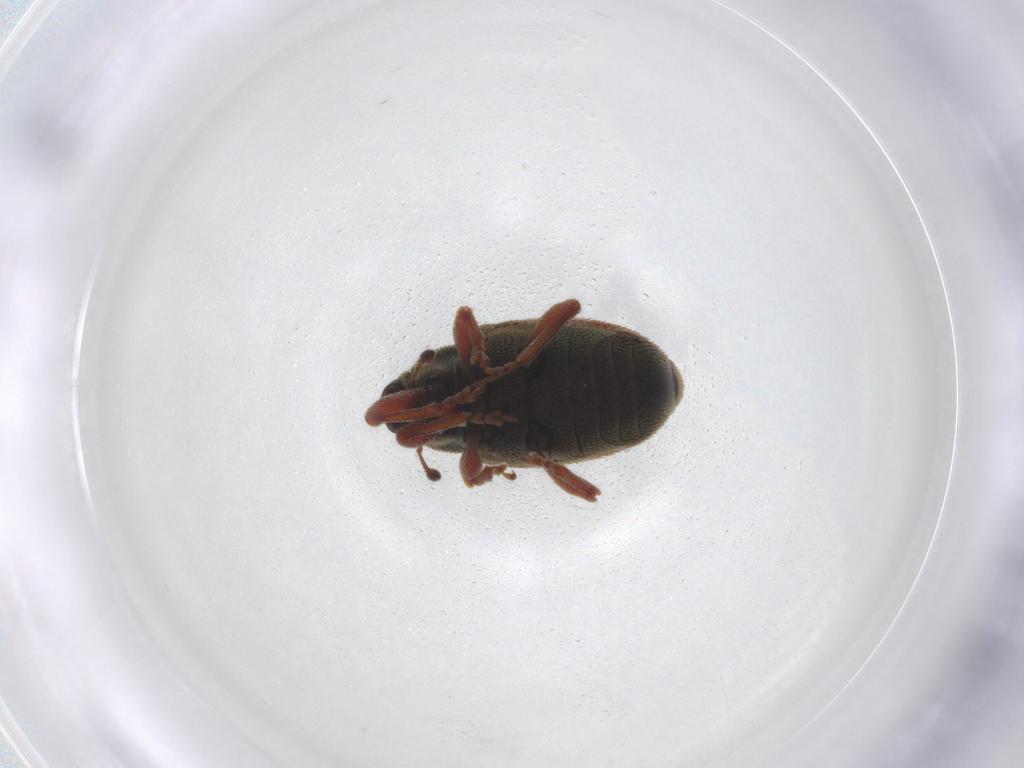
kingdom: Animalia
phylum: Arthropoda
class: Insecta
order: Coleoptera
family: Curculionidae
